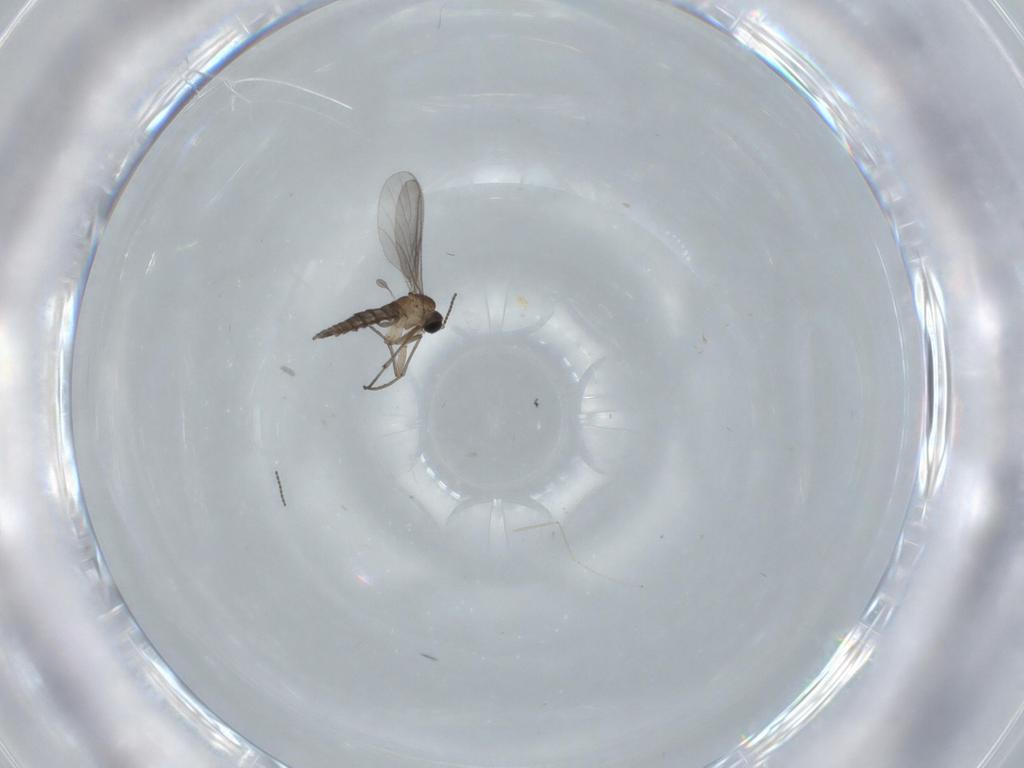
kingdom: Animalia
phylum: Arthropoda
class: Insecta
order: Diptera
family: Sciaridae
